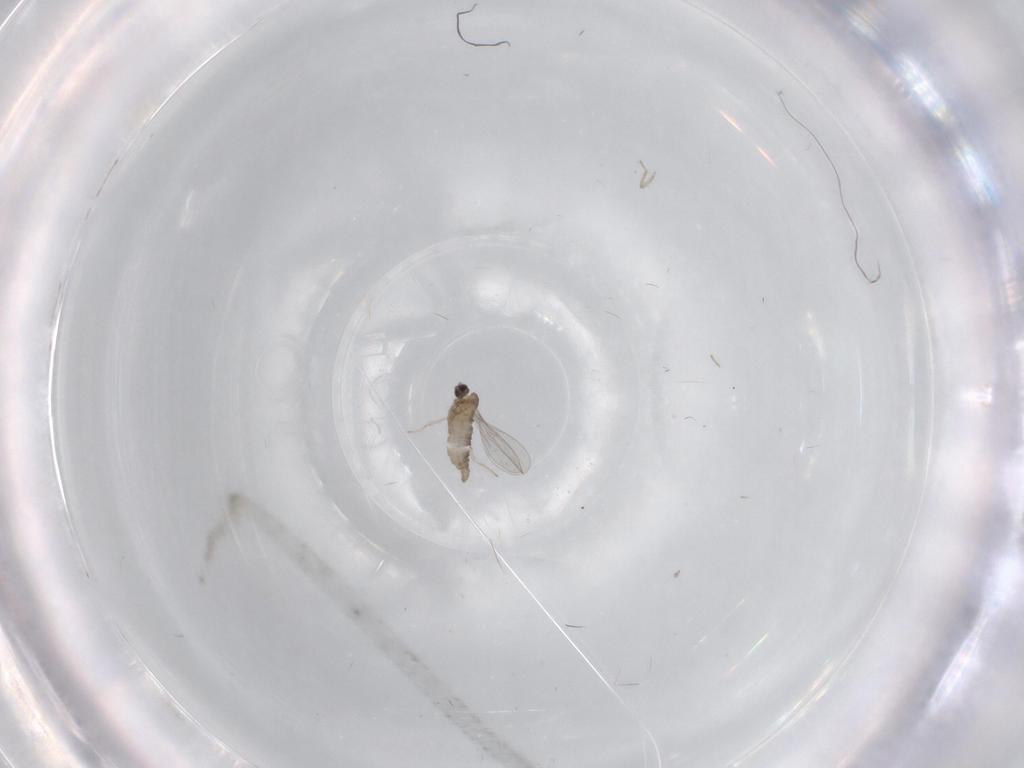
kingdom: Animalia
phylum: Arthropoda
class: Insecta
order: Diptera
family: Cecidomyiidae
